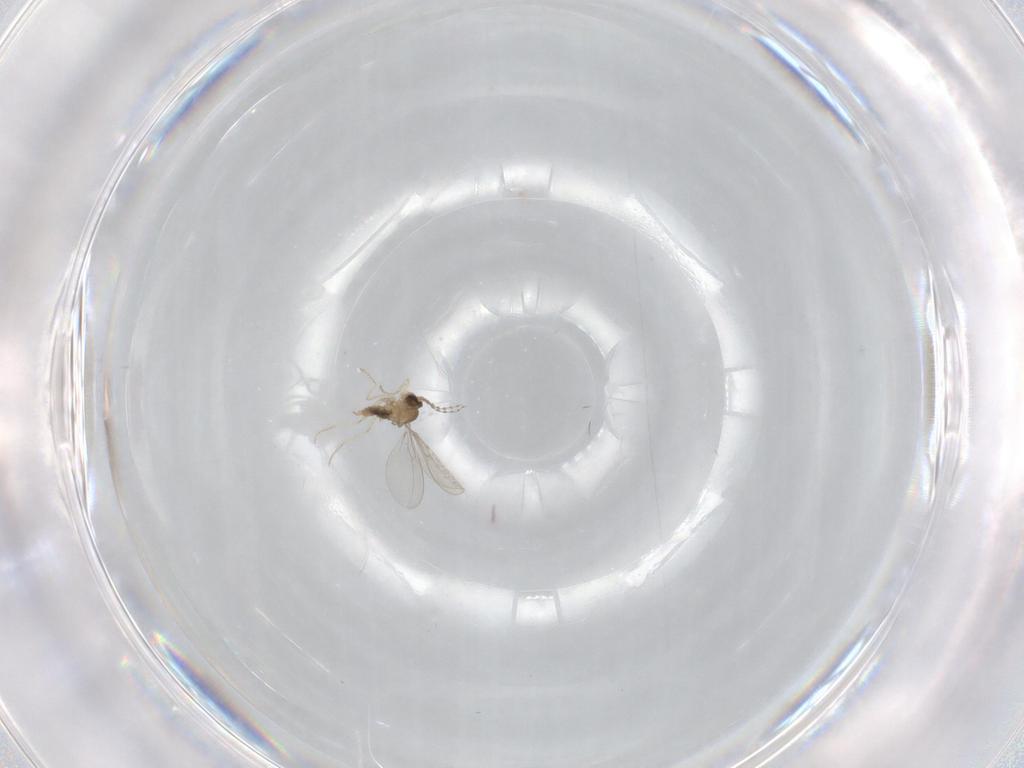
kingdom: Animalia
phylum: Arthropoda
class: Insecta
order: Diptera
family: Cecidomyiidae
